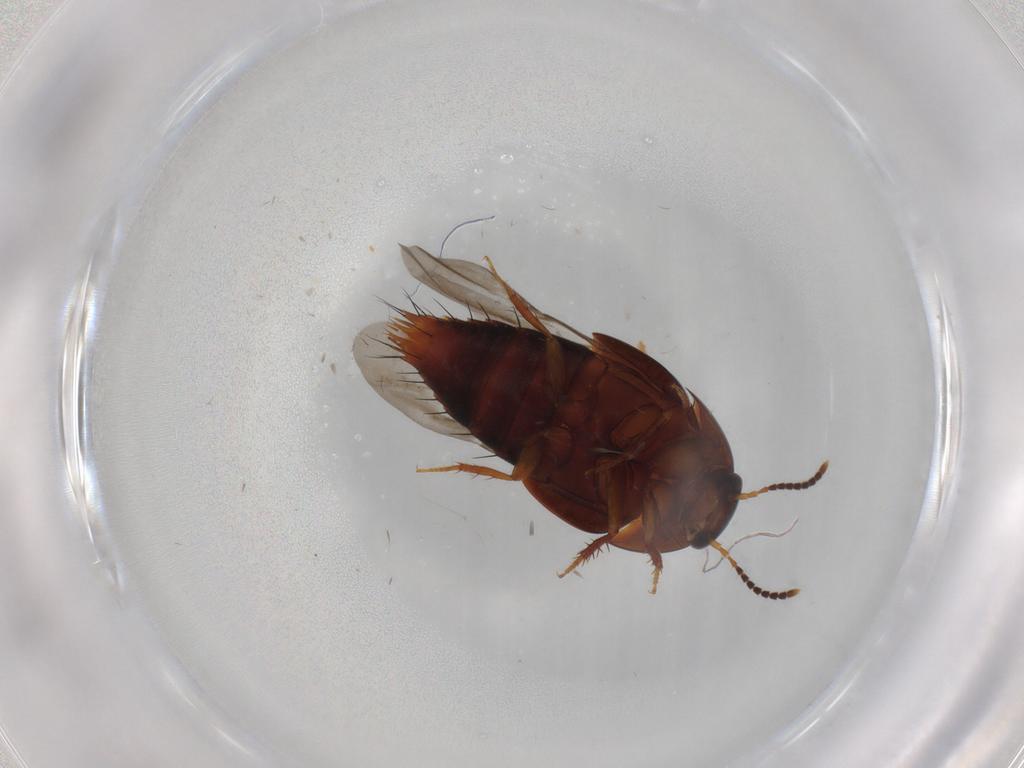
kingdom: Animalia
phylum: Arthropoda
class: Insecta
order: Coleoptera
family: Staphylinidae
